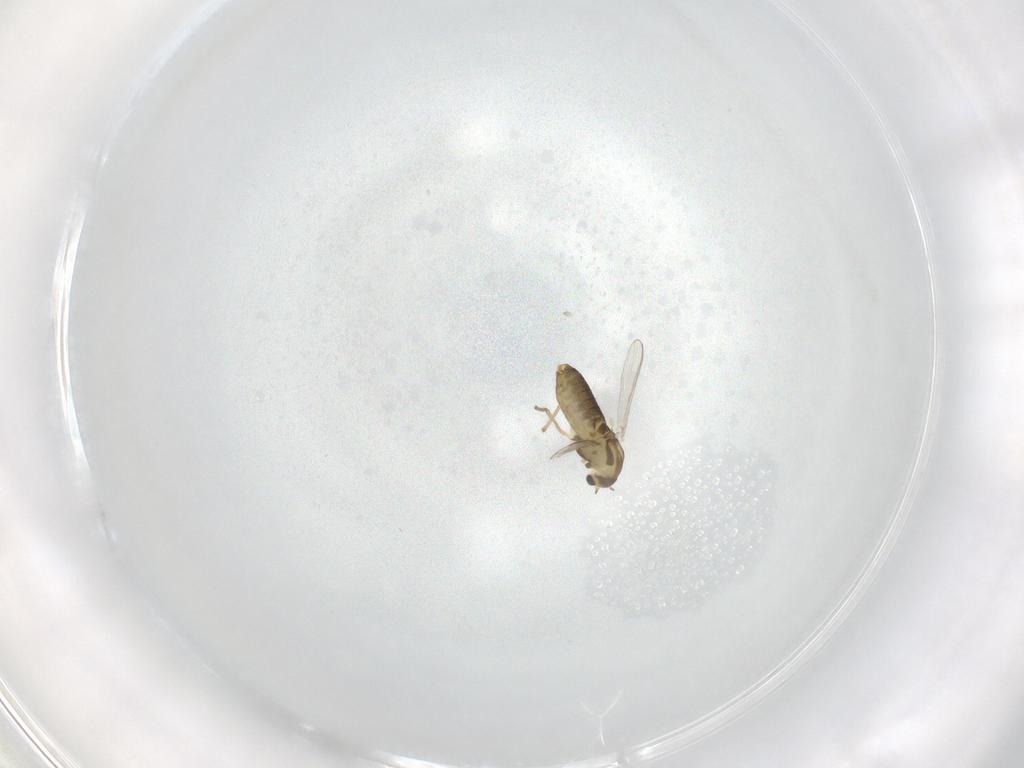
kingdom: Animalia
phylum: Arthropoda
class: Insecta
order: Diptera
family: Chironomidae
